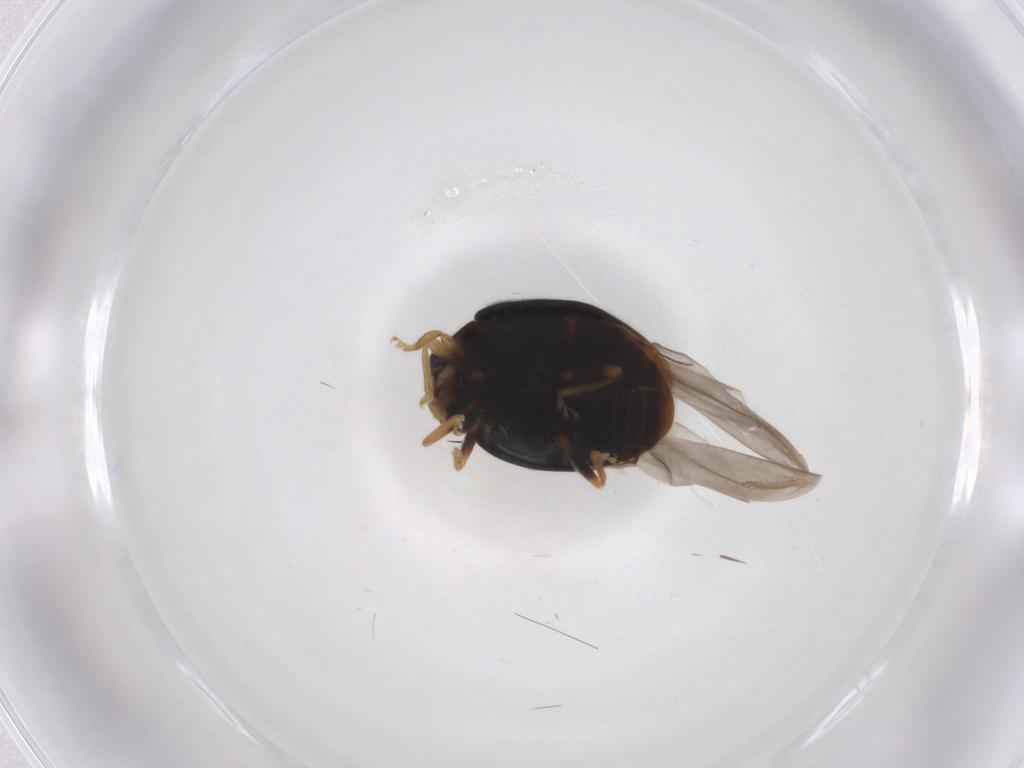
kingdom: Animalia
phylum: Arthropoda
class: Insecta
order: Coleoptera
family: Coccinellidae
